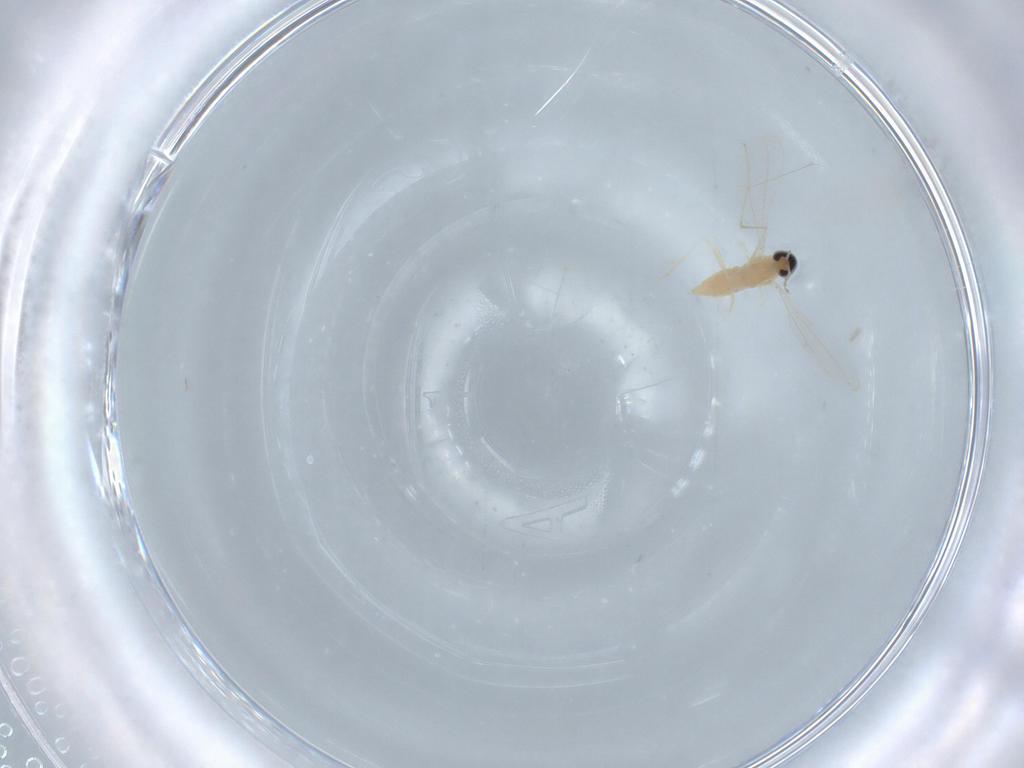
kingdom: Animalia
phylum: Arthropoda
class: Insecta
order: Diptera
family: Cecidomyiidae
